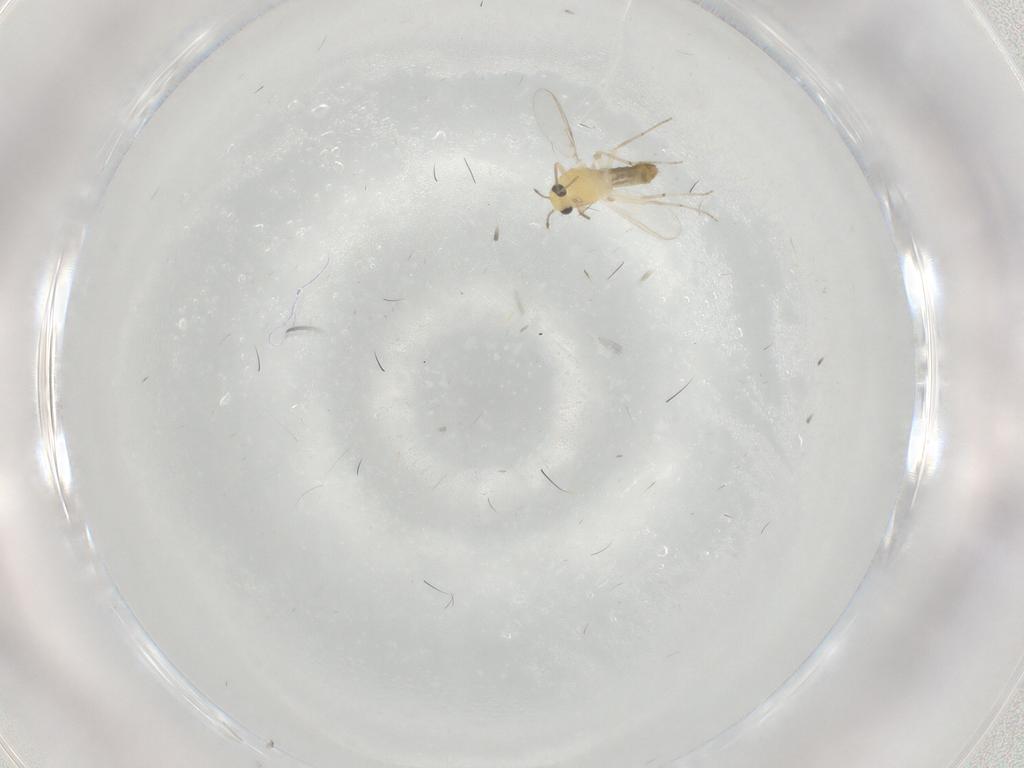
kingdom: Animalia
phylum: Arthropoda
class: Insecta
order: Diptera
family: Chironomidae
